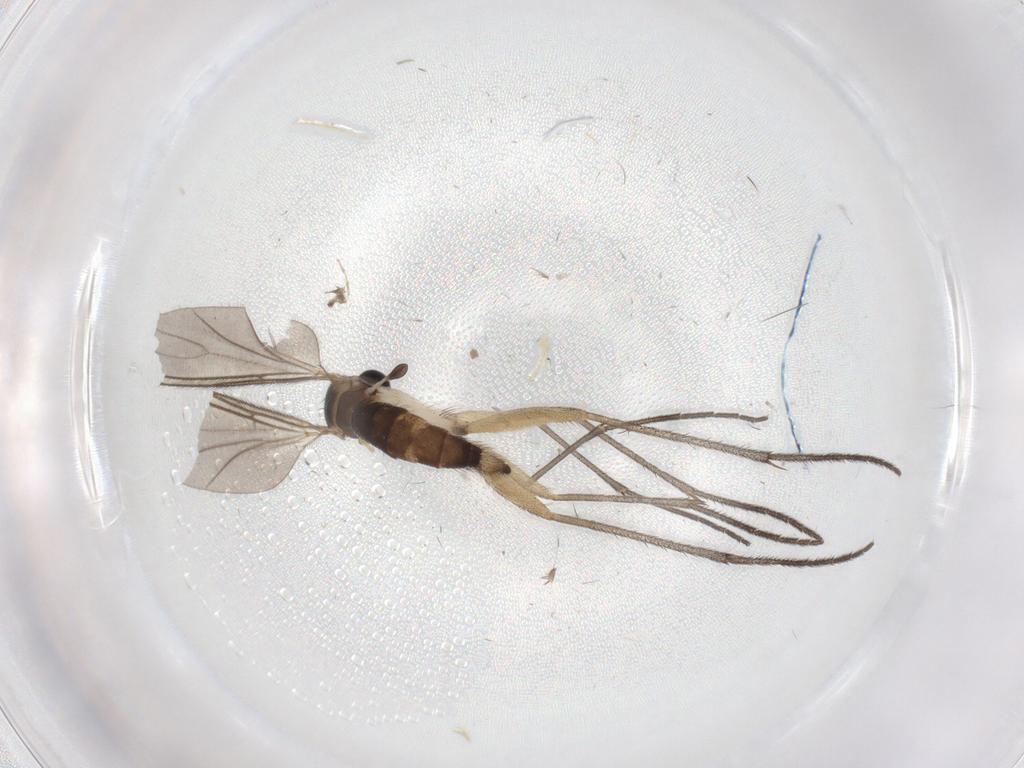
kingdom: Animalia
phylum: Arthropoda
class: Insecta
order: Diptera
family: Sciaridae
